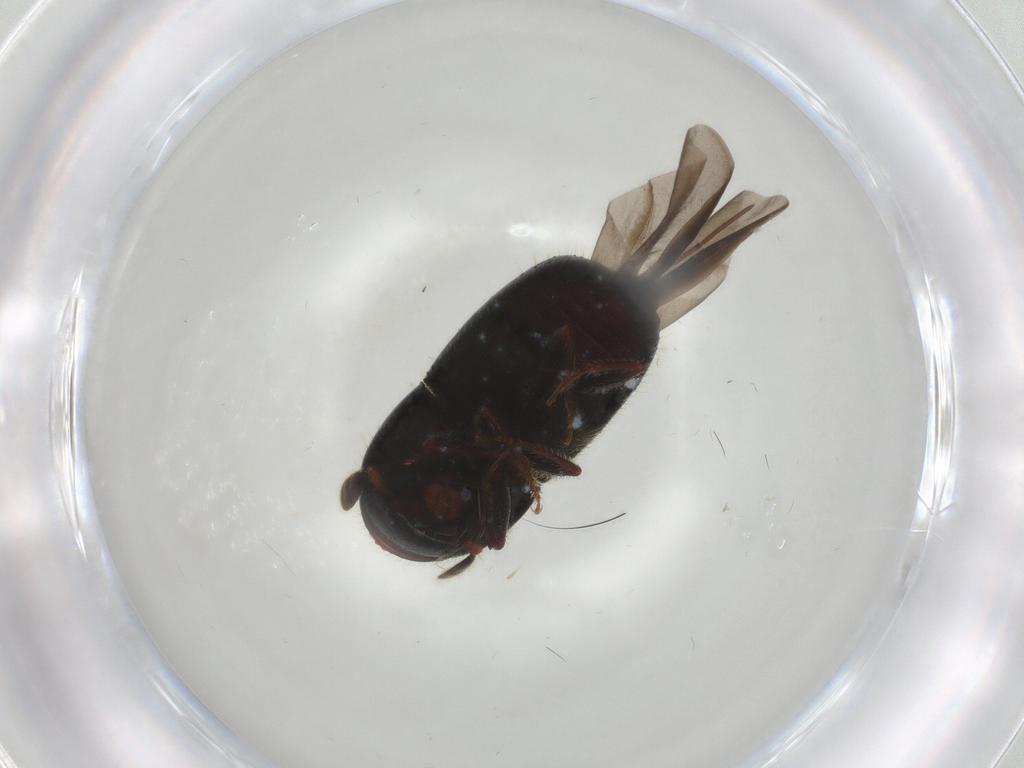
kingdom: Animalia
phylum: Arthropoda
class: Insecta
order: Coleoptera
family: Curculionidae
